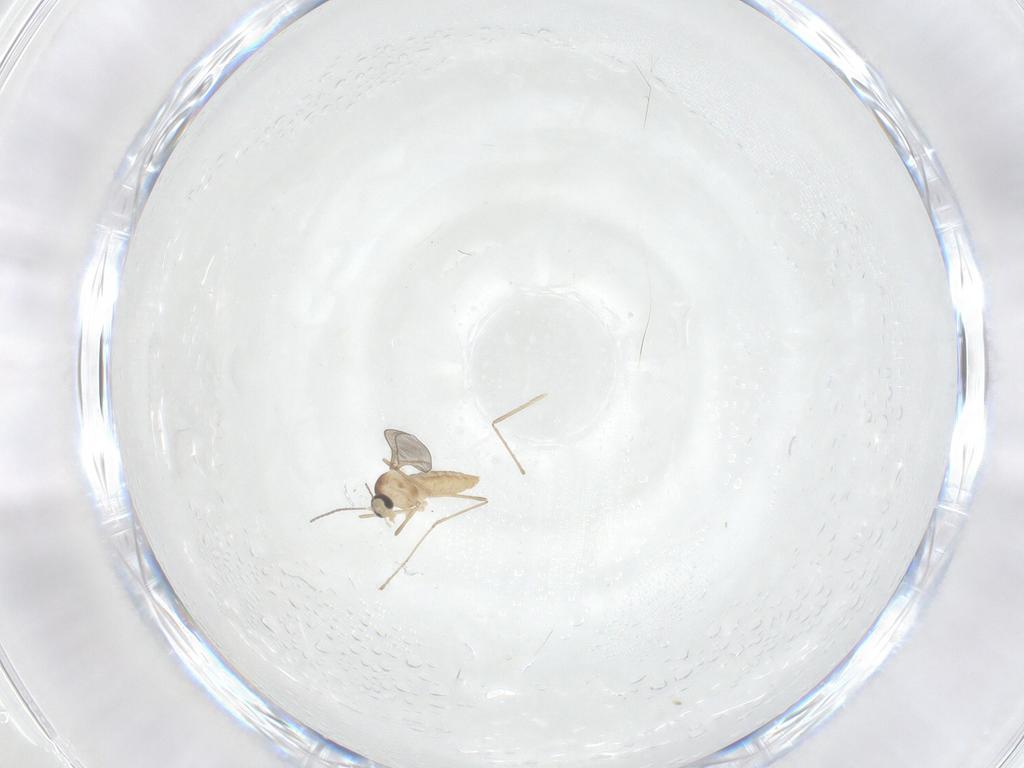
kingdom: Animalia
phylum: Arthropoda
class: Insecta
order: Diptera
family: Cecidomyiidae
